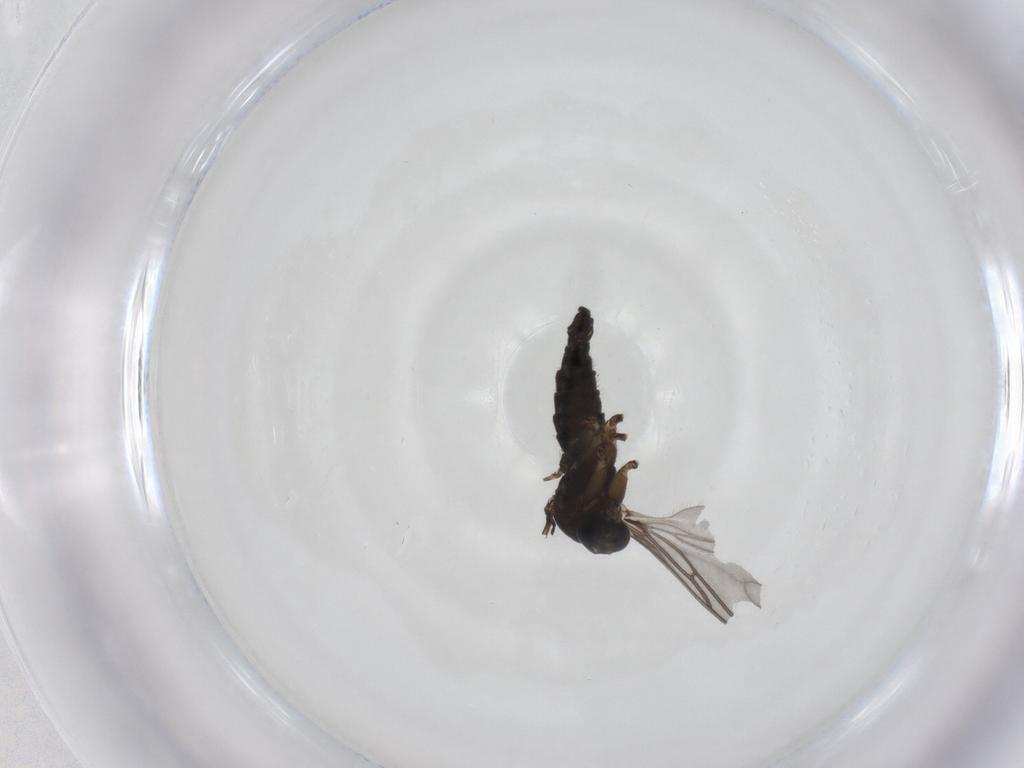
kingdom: Animalia
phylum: Arthropoda
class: Insecta
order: Diptera
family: Sciaridae
